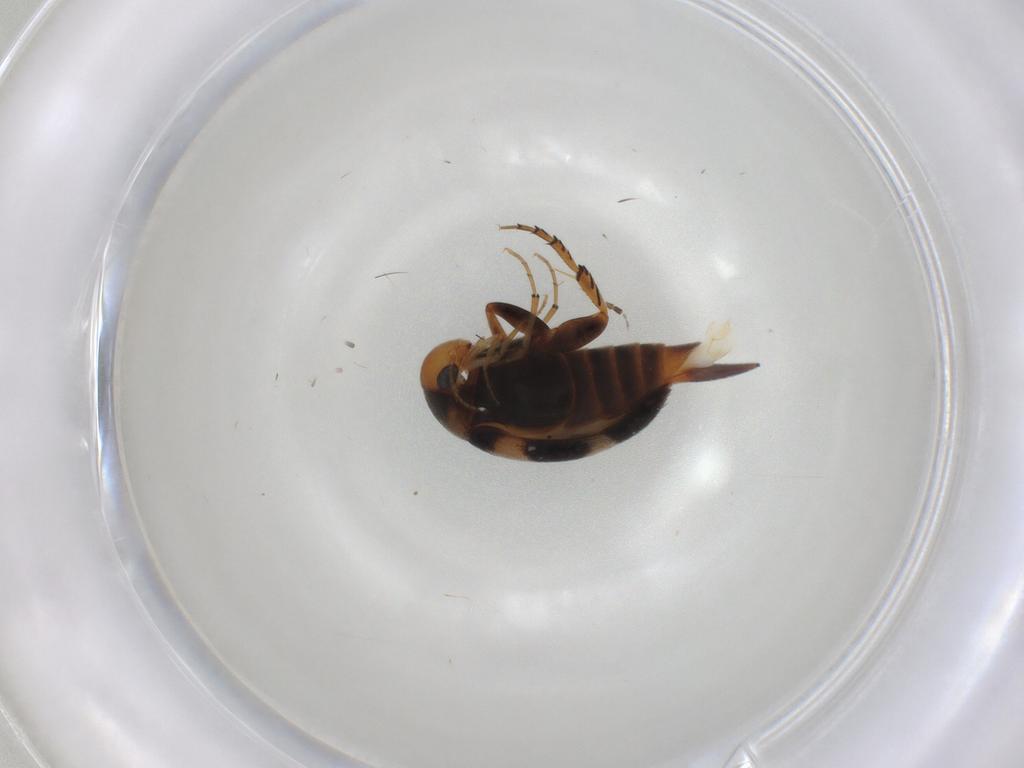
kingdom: Animalia
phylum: Arthropoda
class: Insecta
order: Coleoptera
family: Mordellidae
